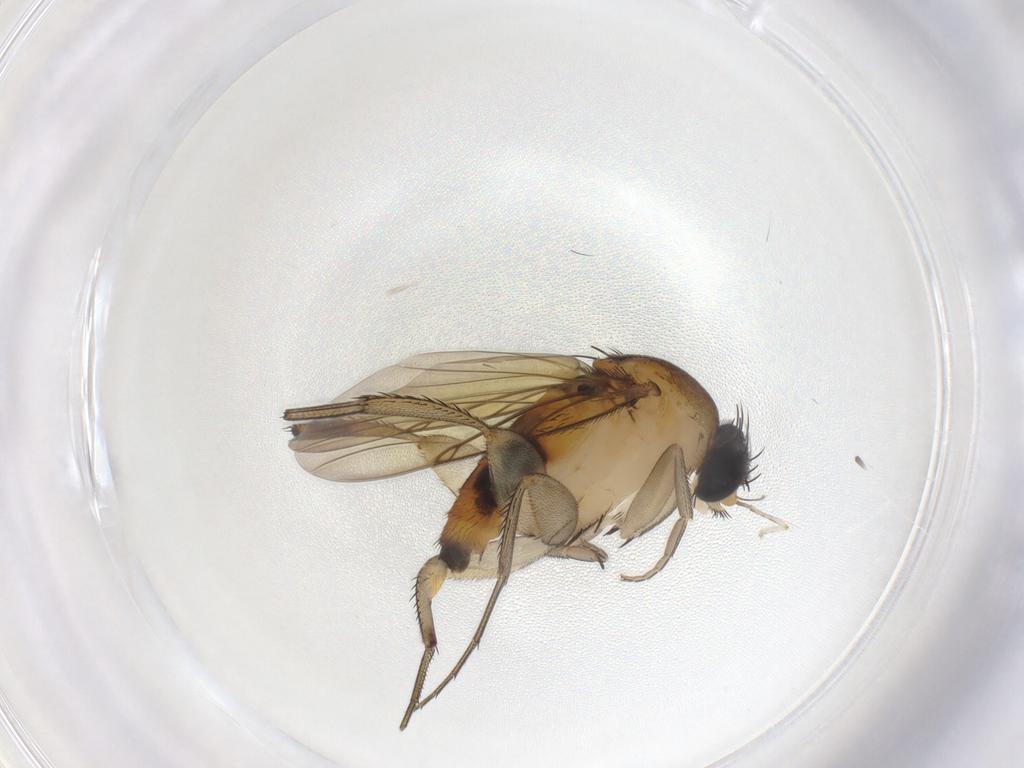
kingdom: Animalia
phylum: Arthropoda
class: Insecta
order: Diptera
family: Phoridae
